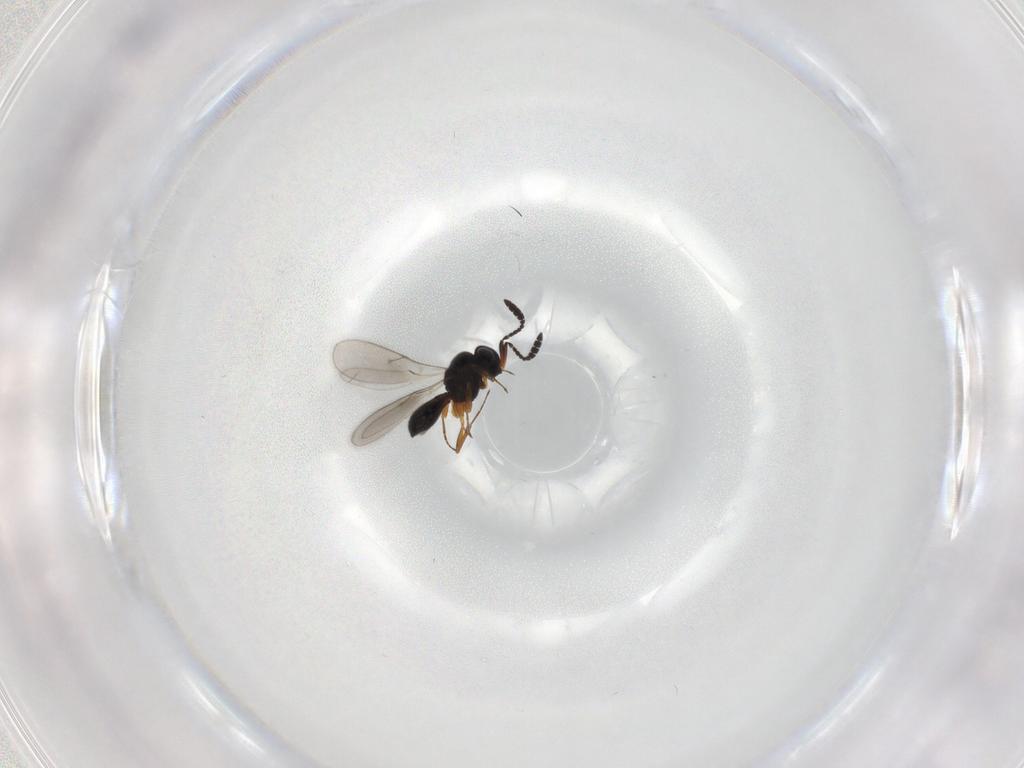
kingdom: Animalia
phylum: Arthropoda
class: Insecta
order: Hymenoptera
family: Scelionidae
